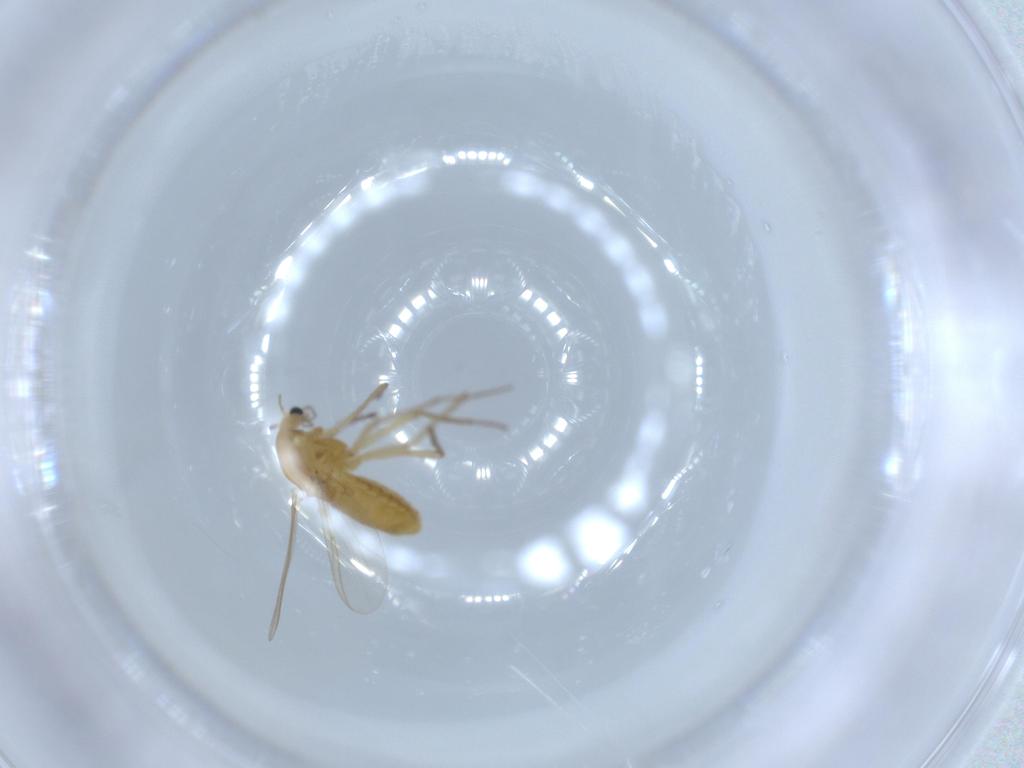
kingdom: Animalia
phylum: Arthropoda
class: Insecta
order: Diptera
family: Chironomidae
